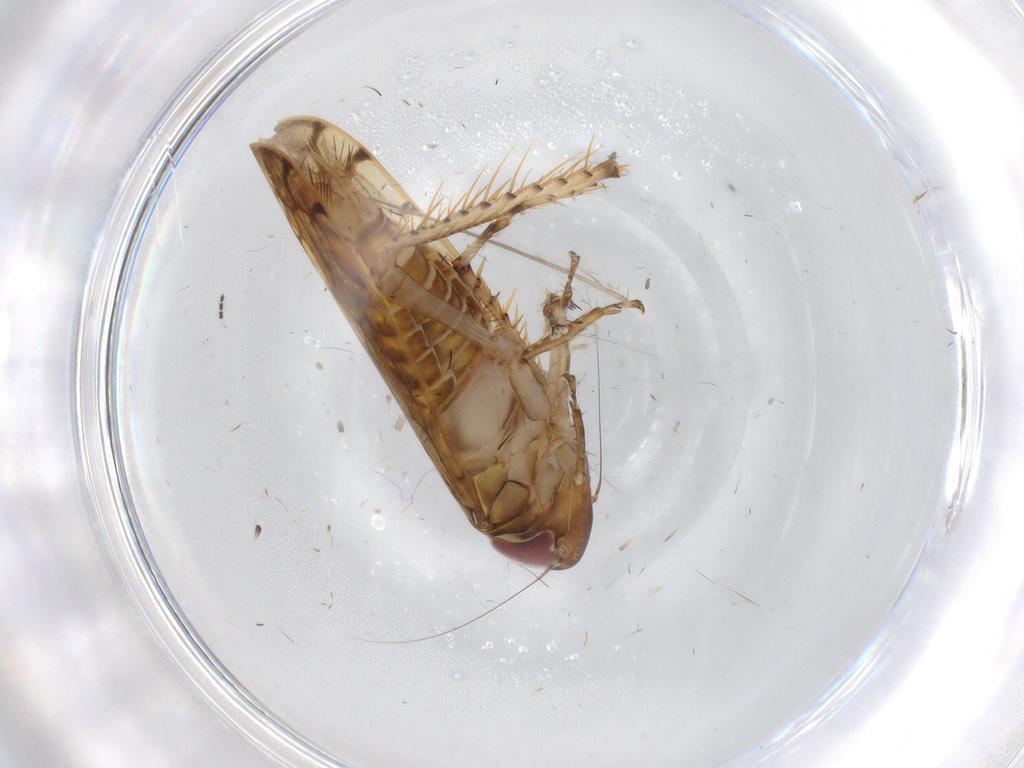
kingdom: Animalia
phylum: Arthropoda
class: Insecta
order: Hemiptera
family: Cicadellidae
